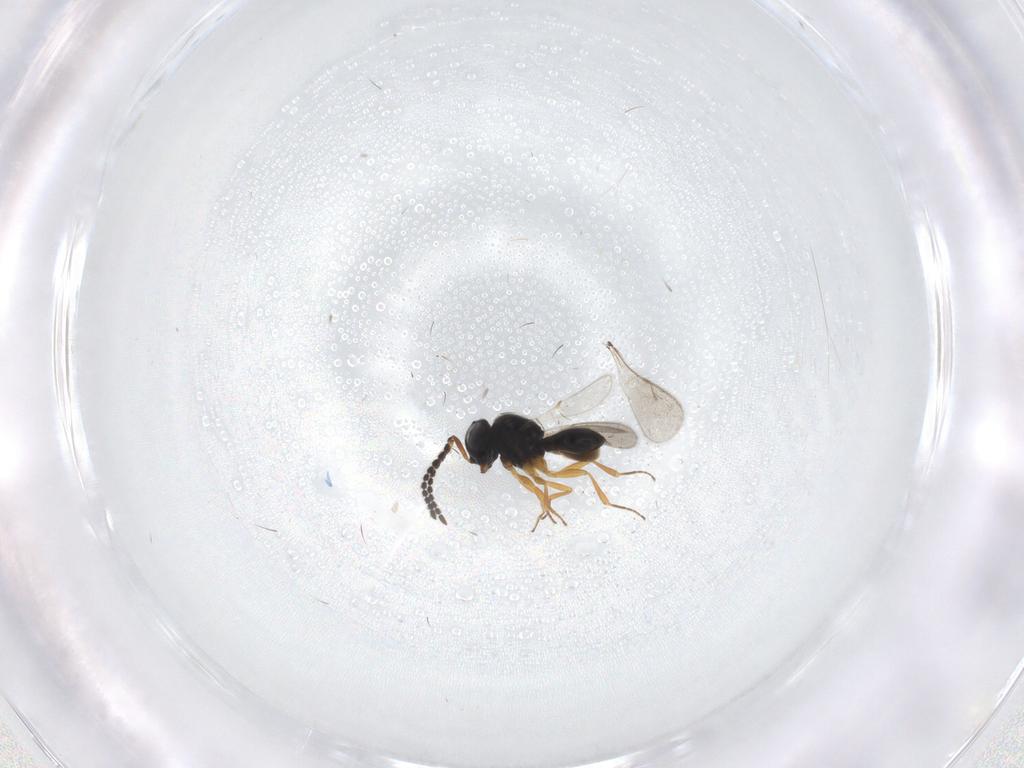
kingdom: Animalia
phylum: Arthropoda
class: Insecta
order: Hymenoptera
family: Scelionidae
